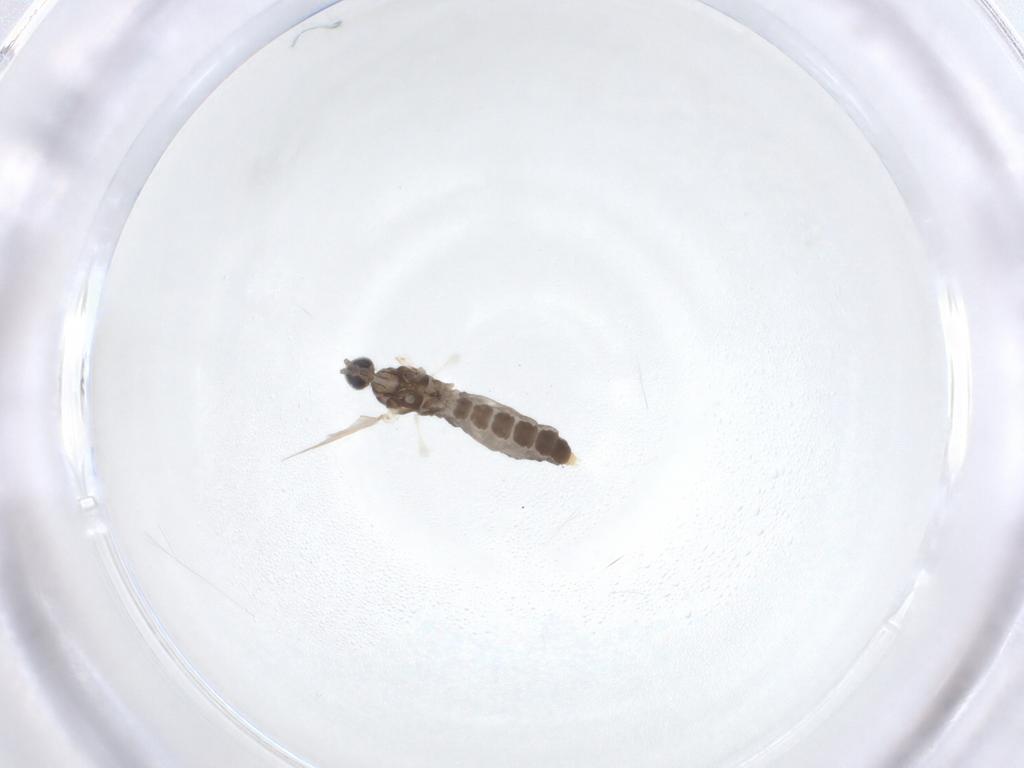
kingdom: Animalia
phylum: Arthropoda
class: Insecta
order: Diptera
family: Cecidomyiidae
